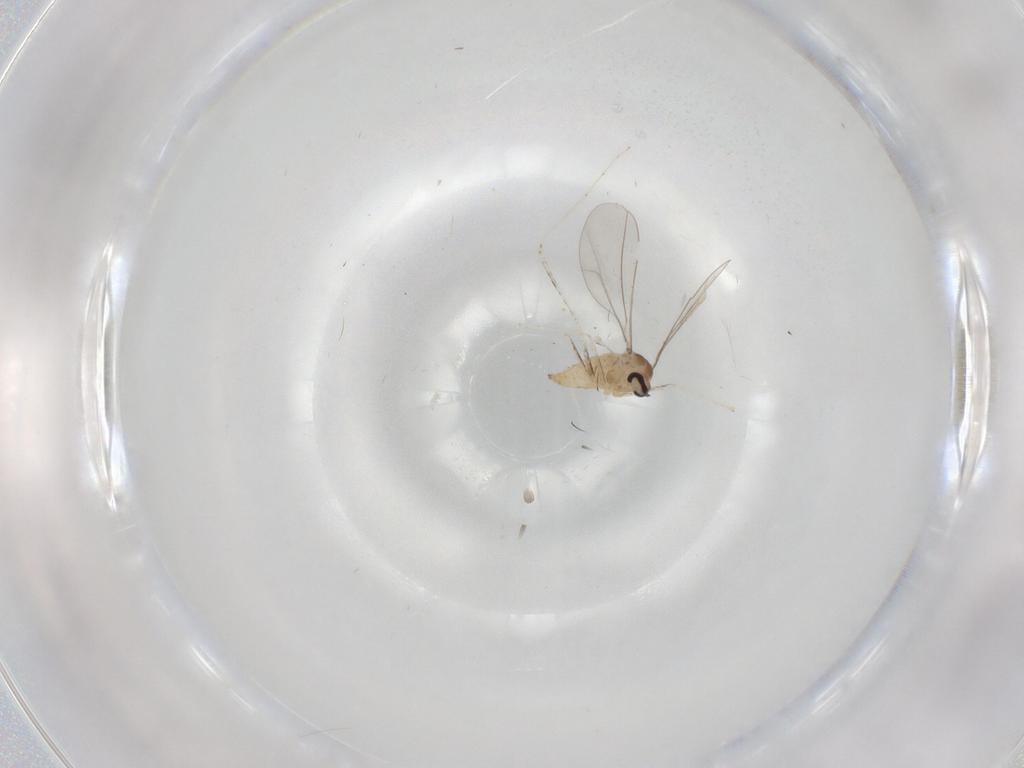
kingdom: Animalia
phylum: Arthropoda
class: Insecta
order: Diptera
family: Cecidomyiidae
